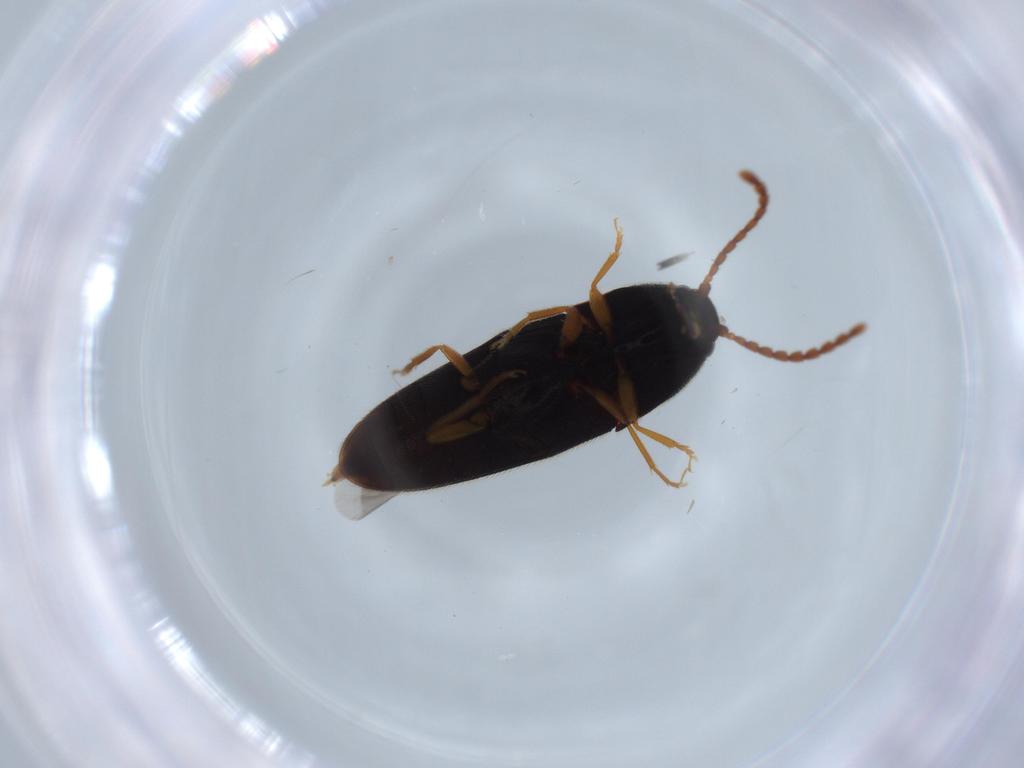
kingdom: Animalia
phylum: Arthropoda
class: Insecta
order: Coleoptera
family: Elateridae
